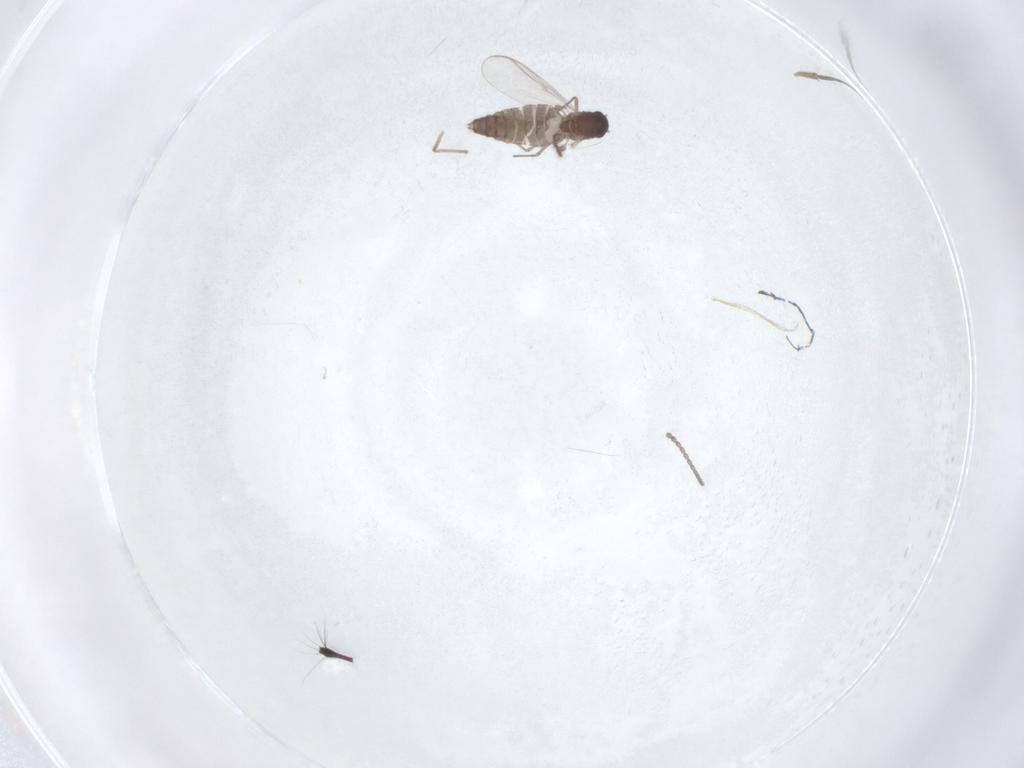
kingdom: Animalia
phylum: Arthropoda
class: Insecta
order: Diptera
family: Chironomidae
